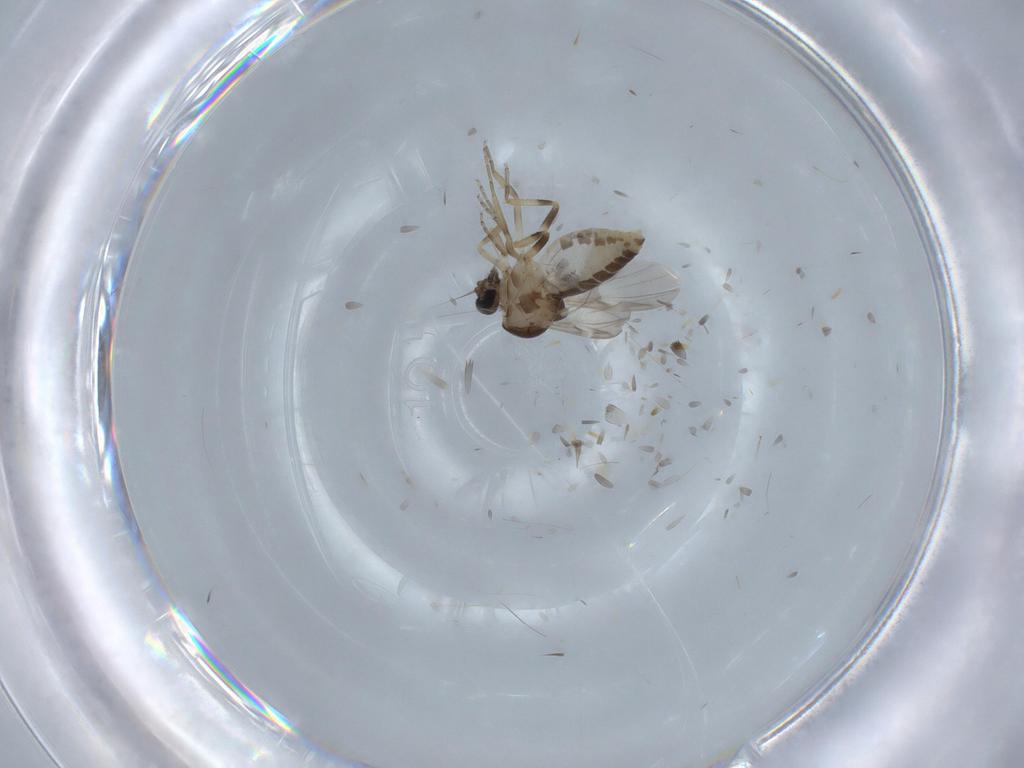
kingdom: Animalia
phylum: Arthropoda
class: Insecta
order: Diptera
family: Ceratopogonidae
